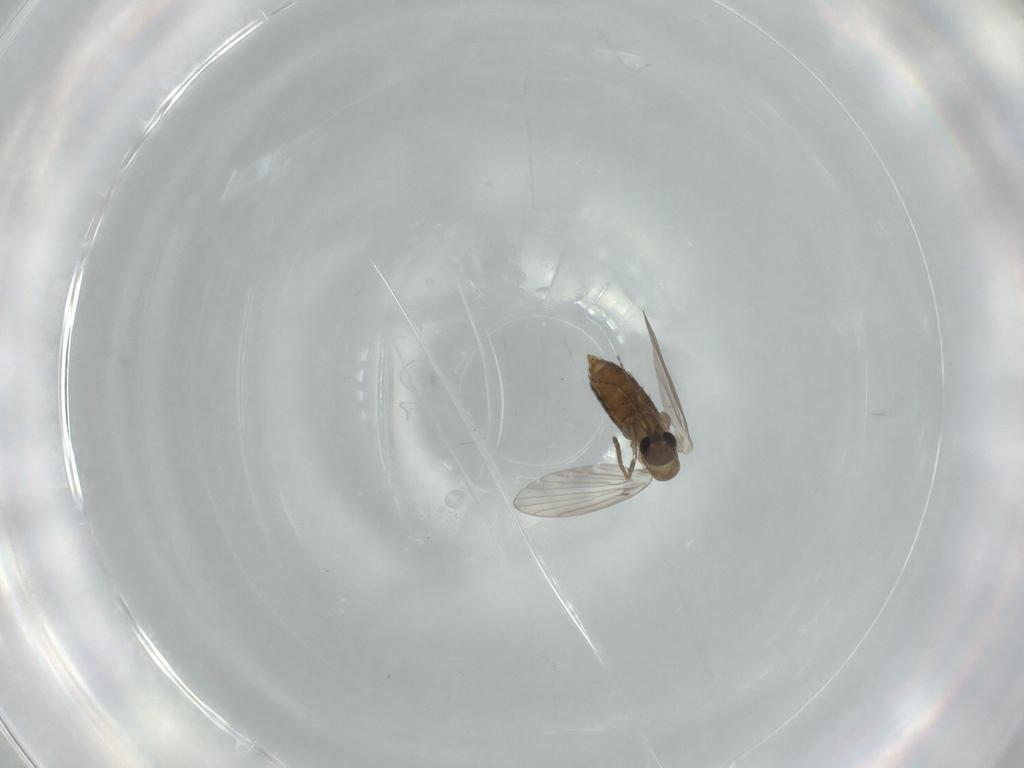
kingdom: Animalia
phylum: Arthropoda
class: Insecta
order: Diptera
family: Sphaeroceridae
